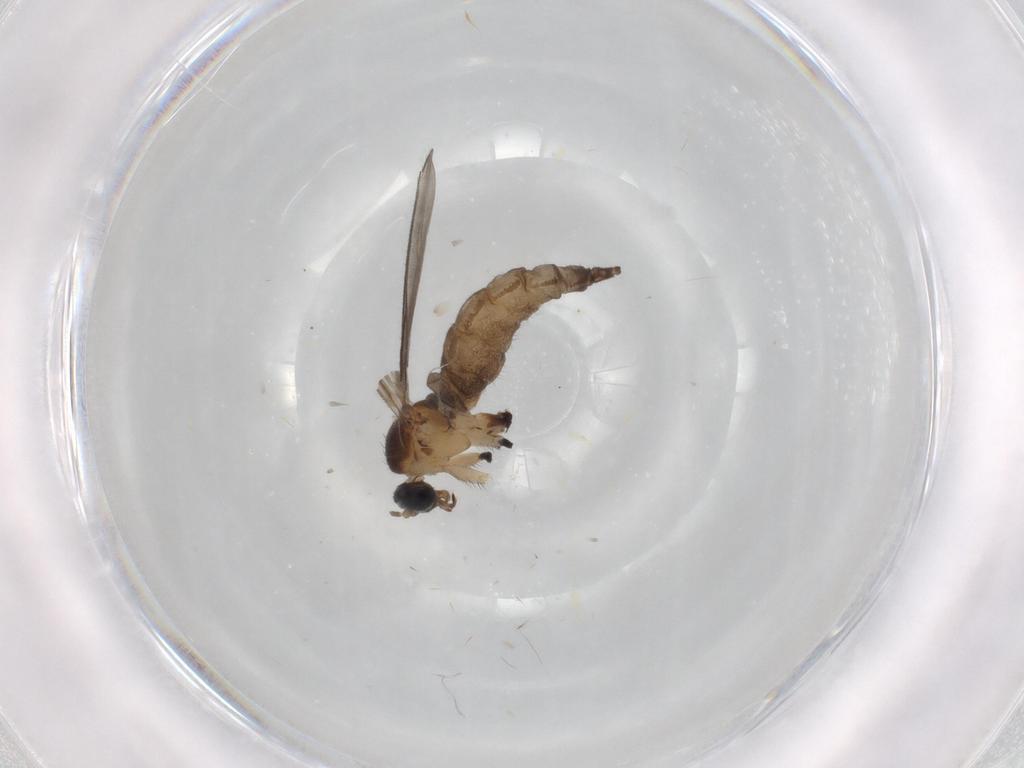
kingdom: Animalia
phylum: Arthropoda
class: Insecta
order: Diptera
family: Sciaridae
